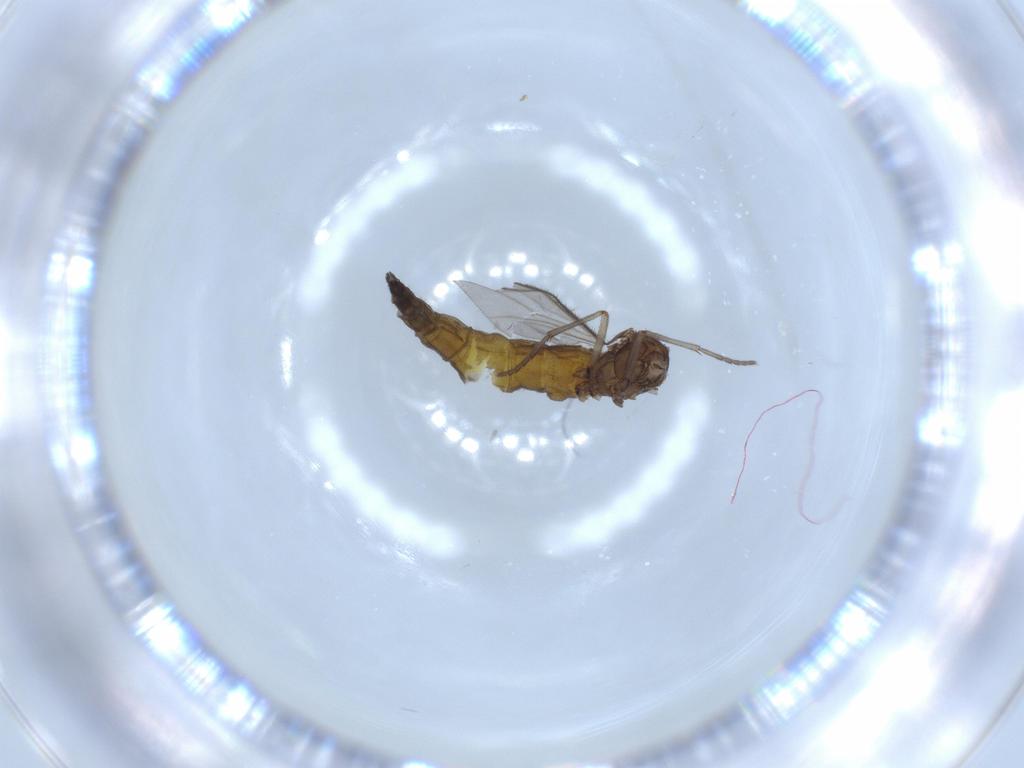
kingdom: Animalia
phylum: Arthropoda
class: Insecta
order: Diptera
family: Sciaridae
